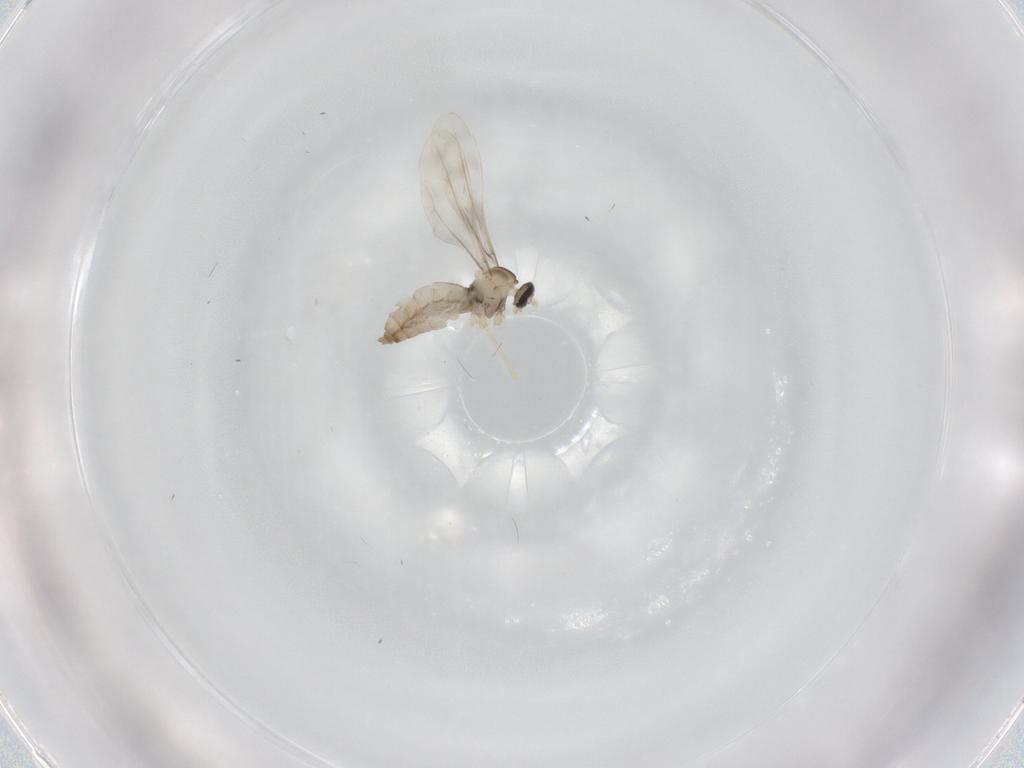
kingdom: Animalia
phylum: Arthropoda
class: Insecta
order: Diptera
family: Cecidomyiidae
